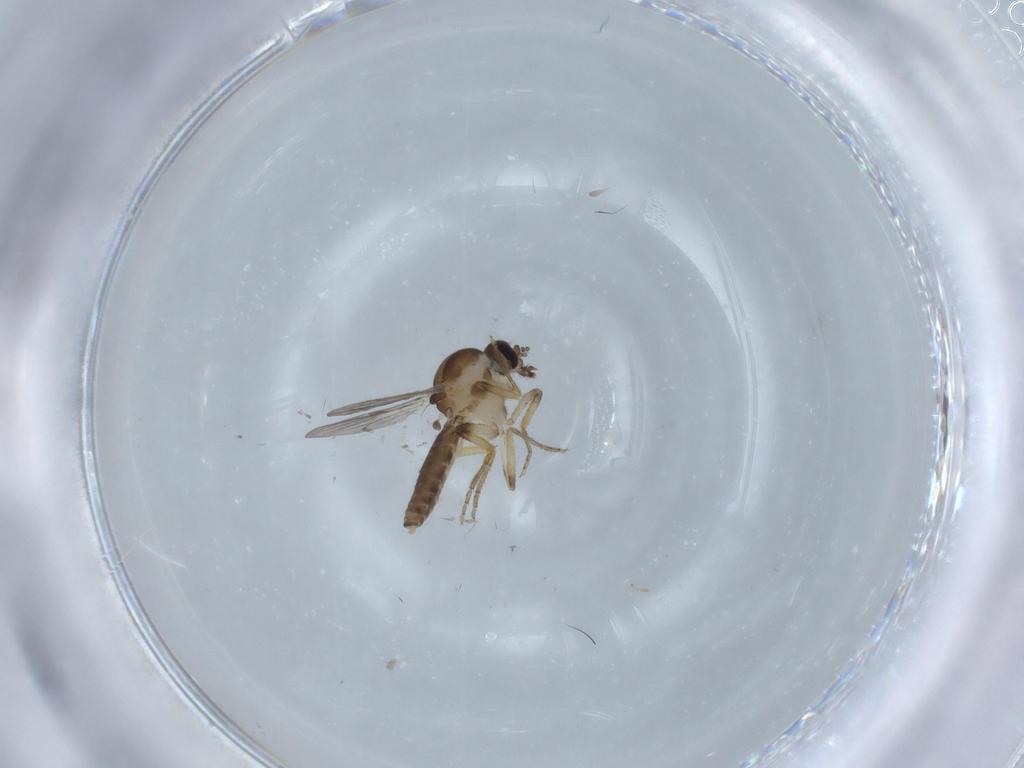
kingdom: Animalia
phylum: Arthropoda
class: Insecta
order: Diptera
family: Ceratopogonidae
